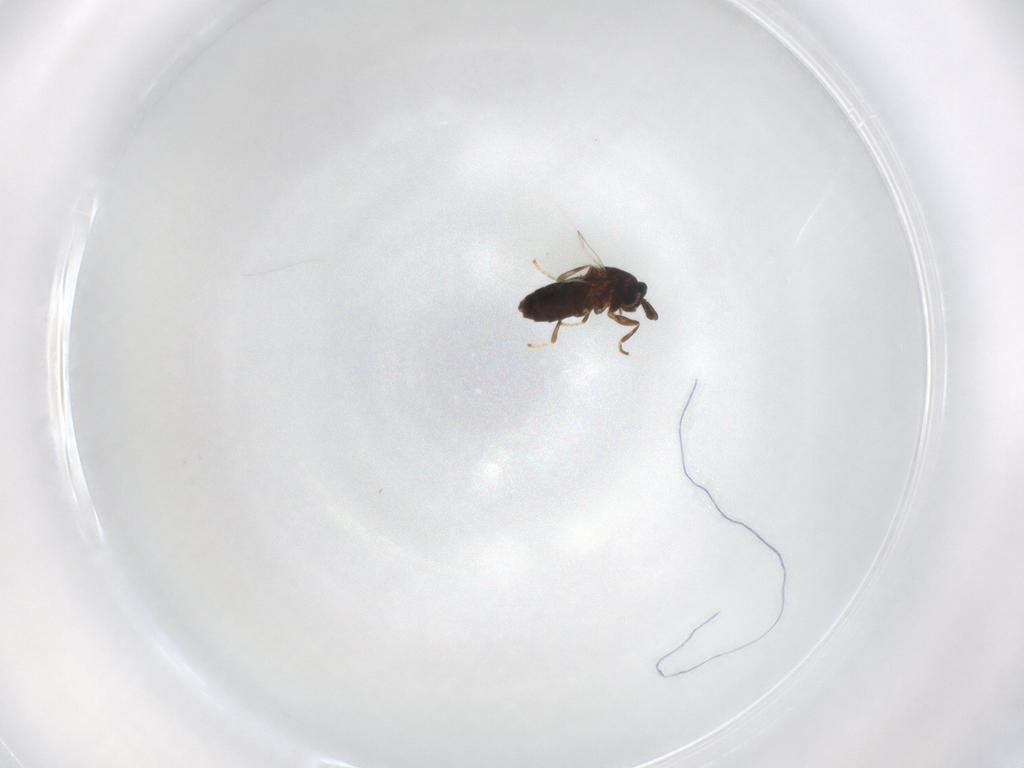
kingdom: Animalia
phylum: Arthropoda
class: Insecta
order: Diptera
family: Scatopsidae
